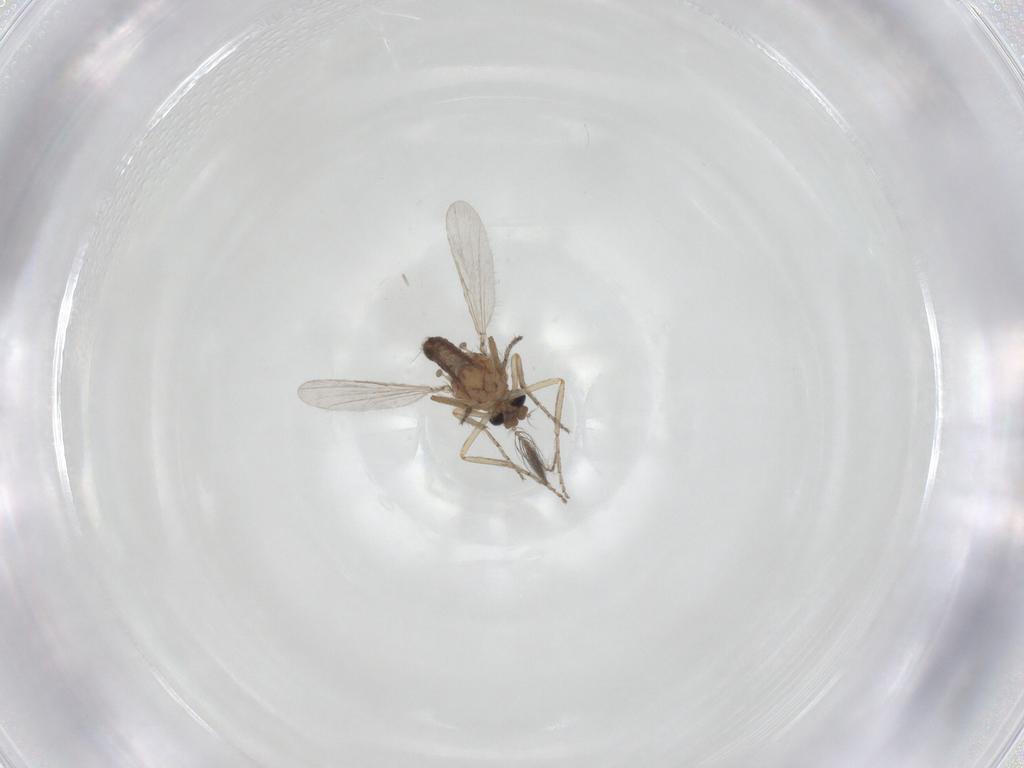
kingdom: Animalia
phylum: Arthropoda
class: Insecta
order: Diptera
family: Ceratopogonidae
